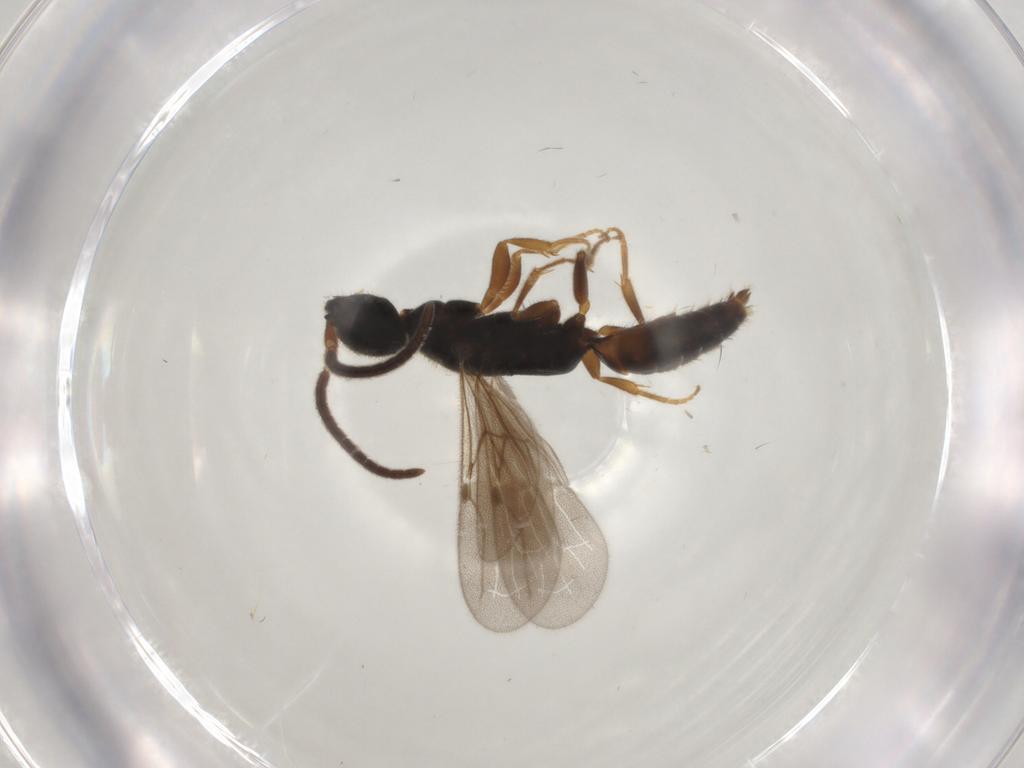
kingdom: Animalia
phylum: Arthropoda
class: Insecta
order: Hymenoptera
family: Bethylidae
